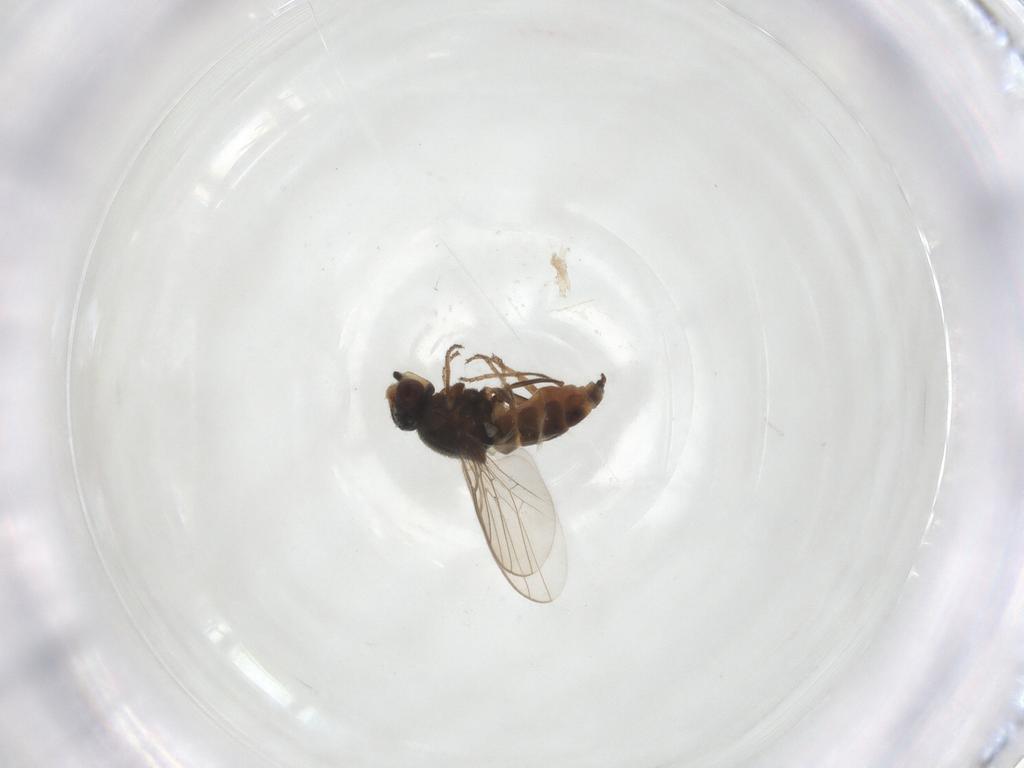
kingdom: Animalia
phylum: Arthropoda
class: Insecta
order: Diptera
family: Chloropidae
